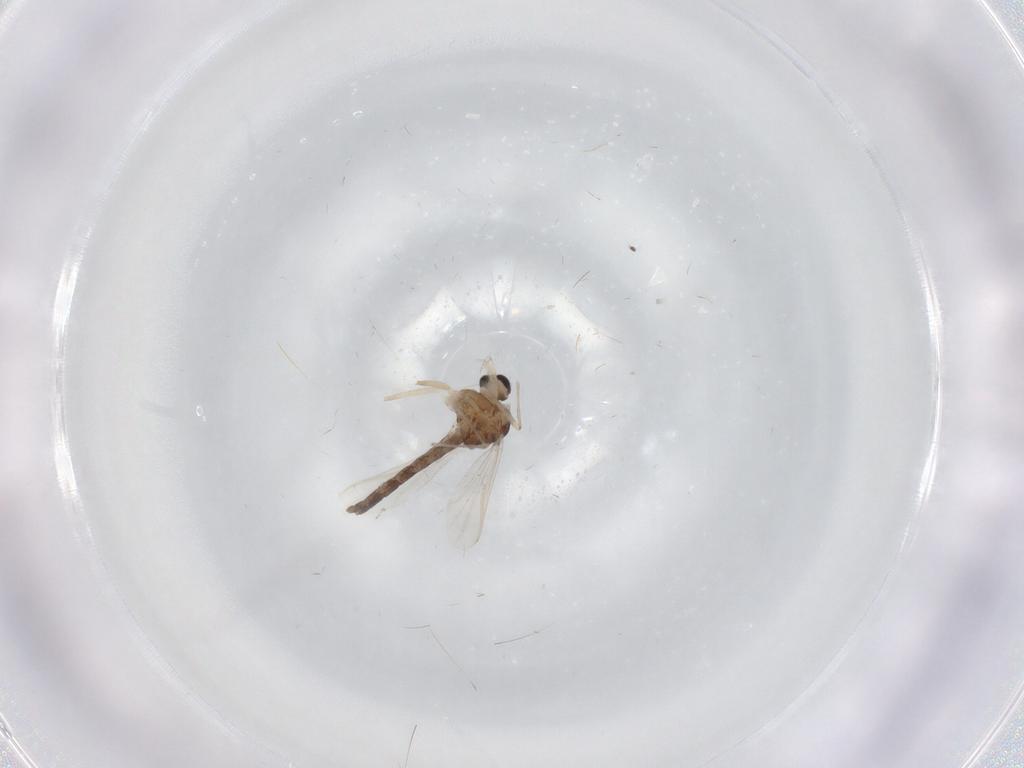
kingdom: Animalia
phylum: Arthropoda
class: Insecta
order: Diptera
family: Chironomidae
